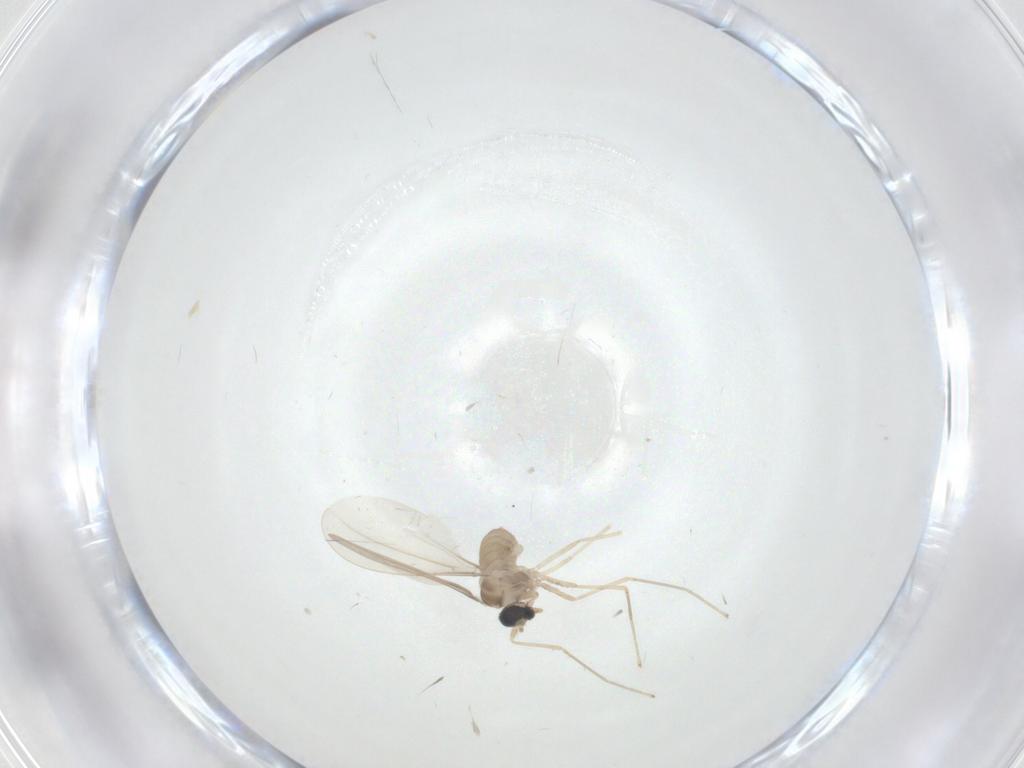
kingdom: Animalia
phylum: Arthropoda
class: Insecta
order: Diptera
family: Cecidomyiidae
